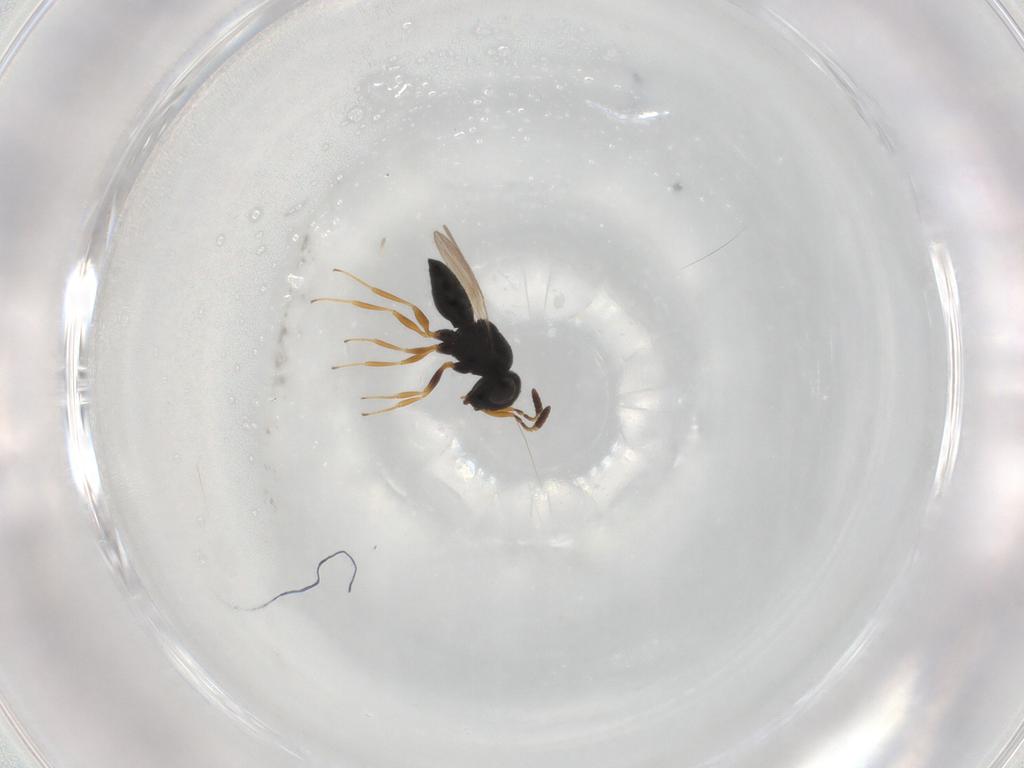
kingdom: Animalia
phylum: Arthropoda
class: Insecta
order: Hymenoptera
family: Scelionidae
